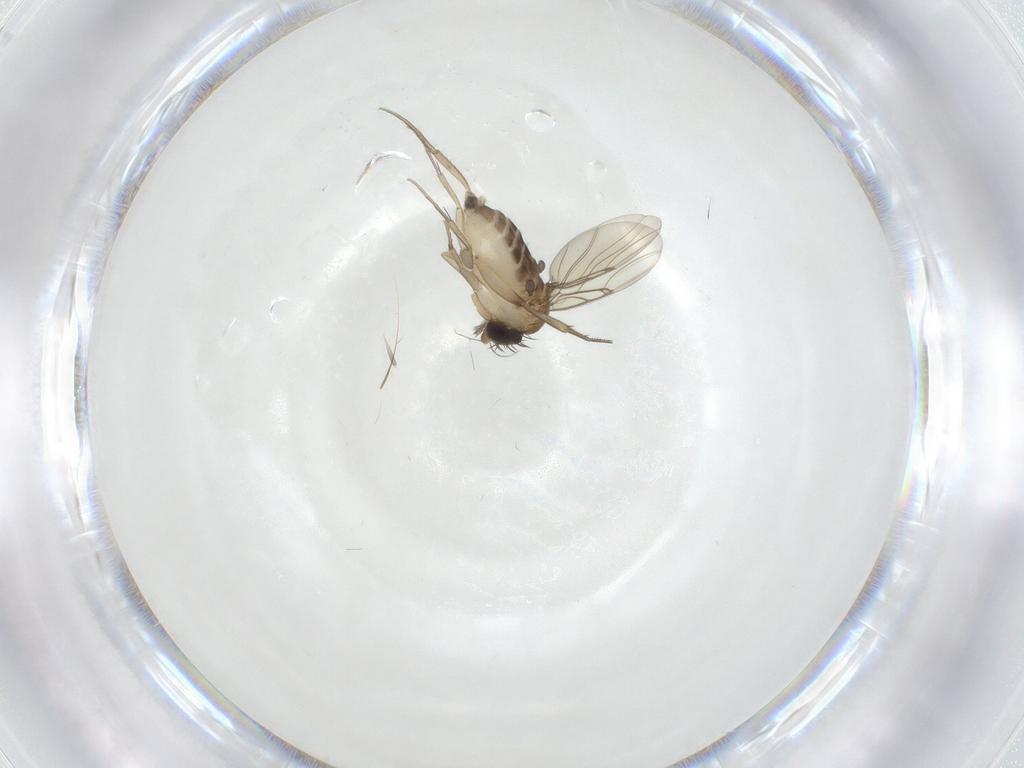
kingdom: Animalia
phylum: Arthropoda
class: Insecta
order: Diptera
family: Phoridae
